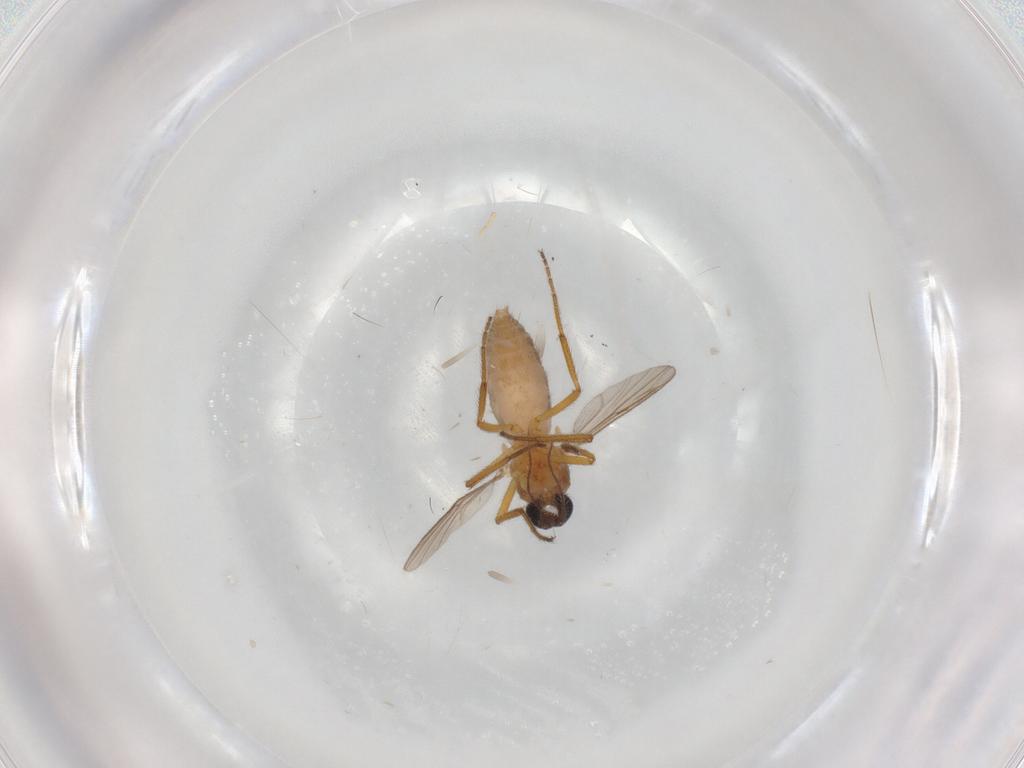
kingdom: Animalia
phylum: Arthropoda
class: Insecta
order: Diptera
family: Ceratopogonidae
